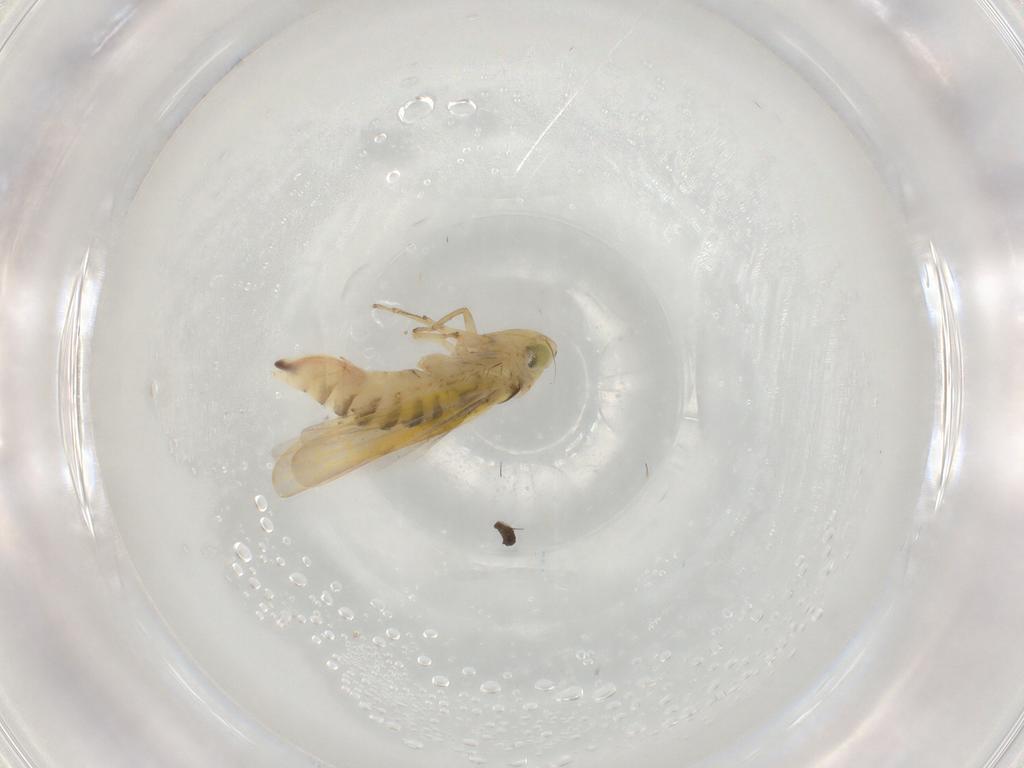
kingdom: Animalia
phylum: Arthropoda
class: Insecta
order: Hemiptera
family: Cicadellidae
